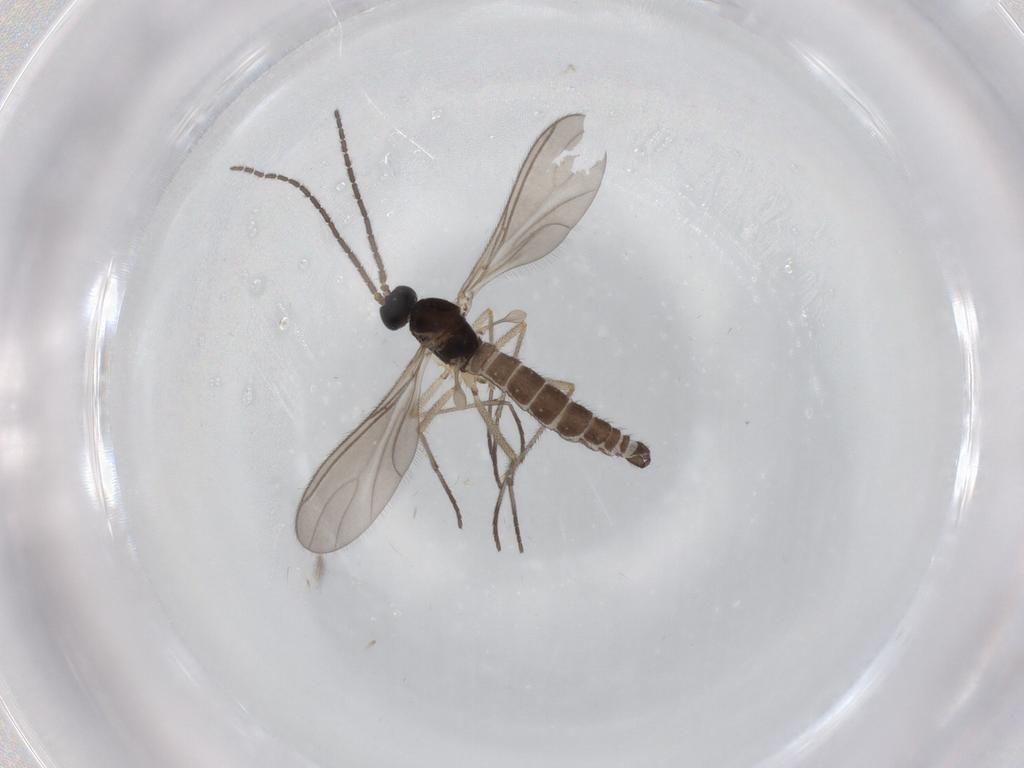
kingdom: Animalia
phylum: Arthropoda
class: Insecta
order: Diptera
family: Cecidomyiidae
